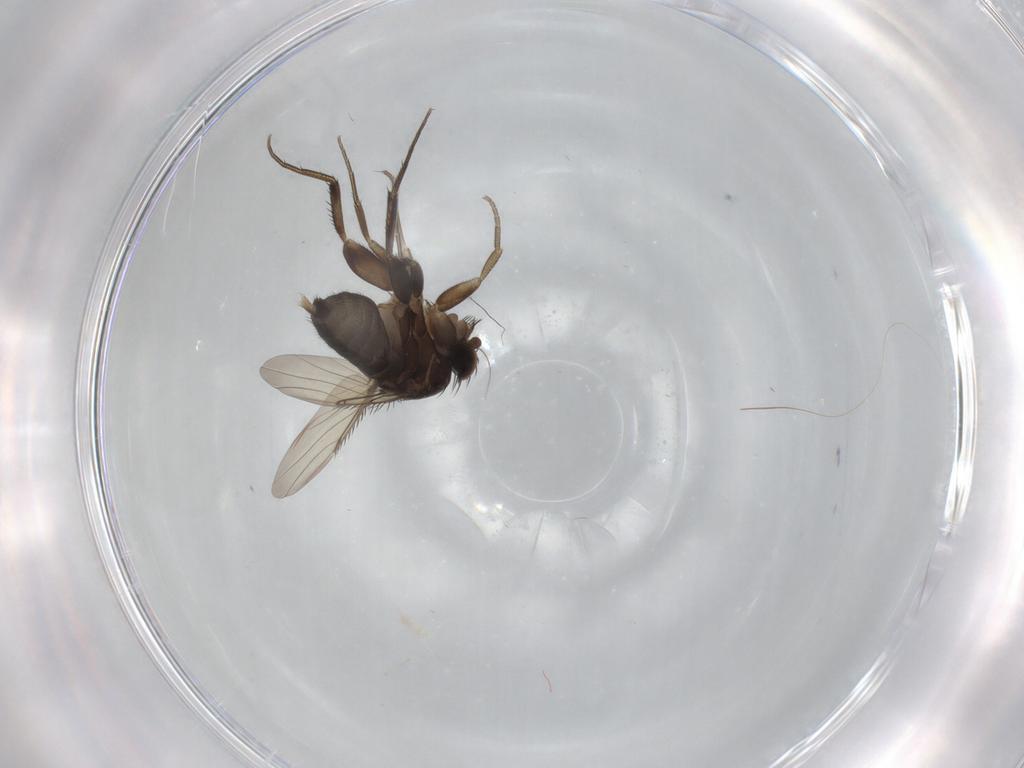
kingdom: Animalia
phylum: Arthropoda
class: Insecta
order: Diptera
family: Phoridae
